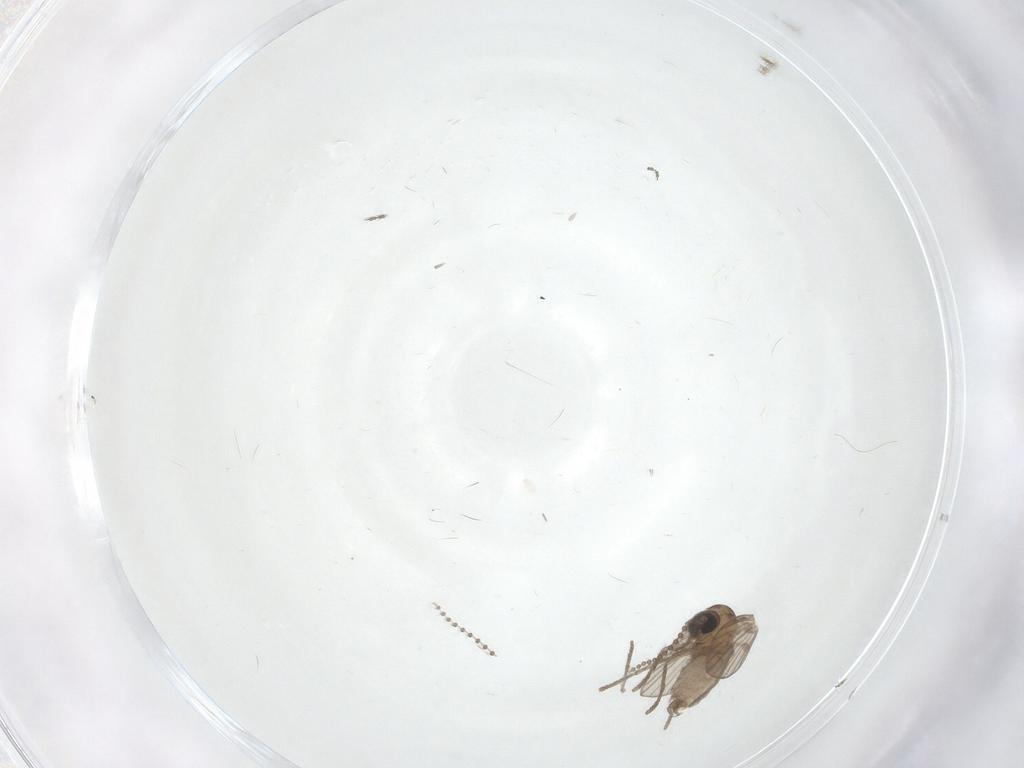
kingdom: Animalia
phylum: Arthropoda
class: Insecta
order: Diptera
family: Psychodidae
